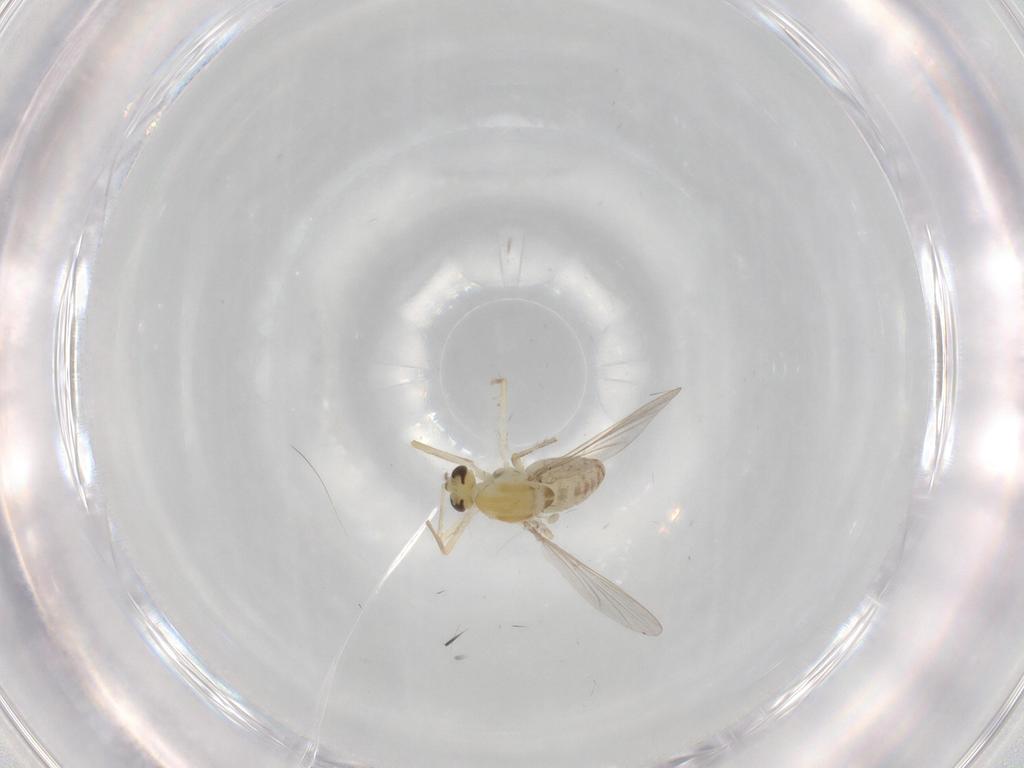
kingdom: Animalia
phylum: Arthropoda
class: Insecta
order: Diptera
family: Chironomidae
